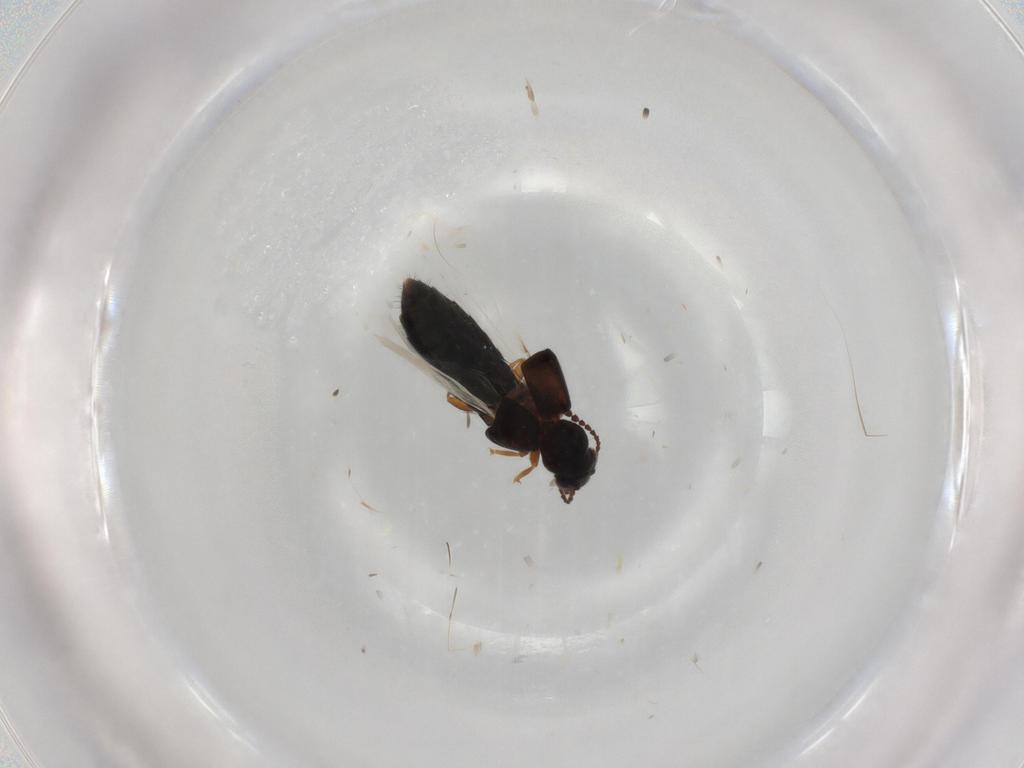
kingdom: Animalia
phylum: Arthropoda
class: Insecta
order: Coleoptera
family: Staphylinidae
